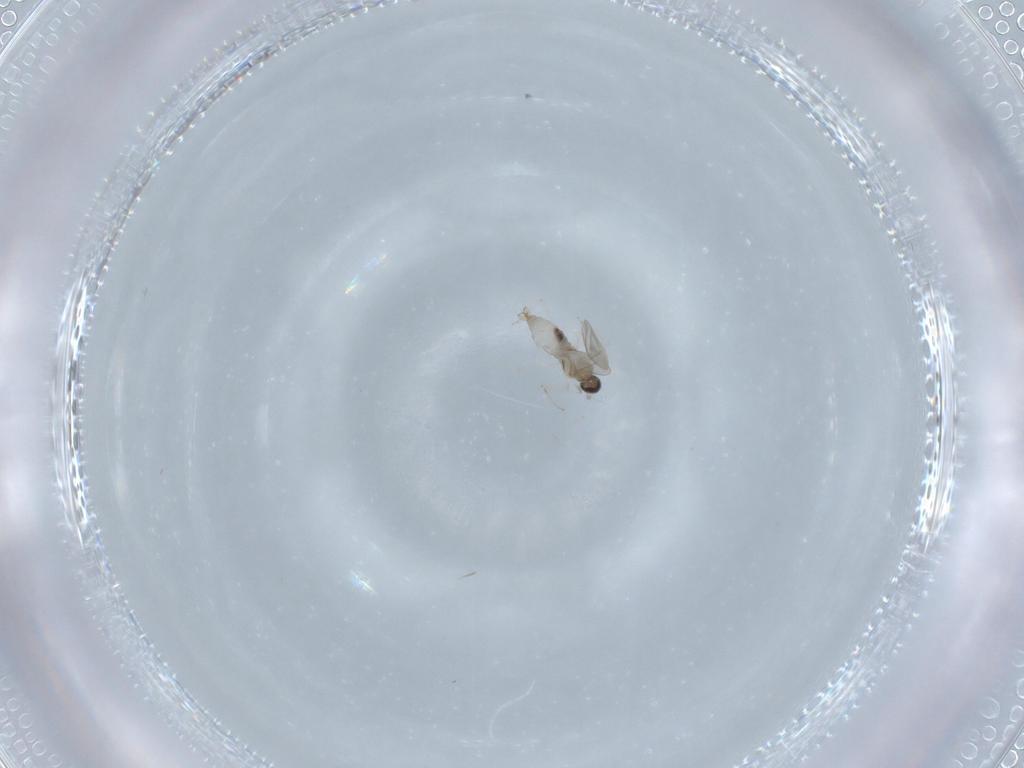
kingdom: Animalia
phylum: Arthropoda
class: Insecta
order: Diptera
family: Cecidomyiidae
